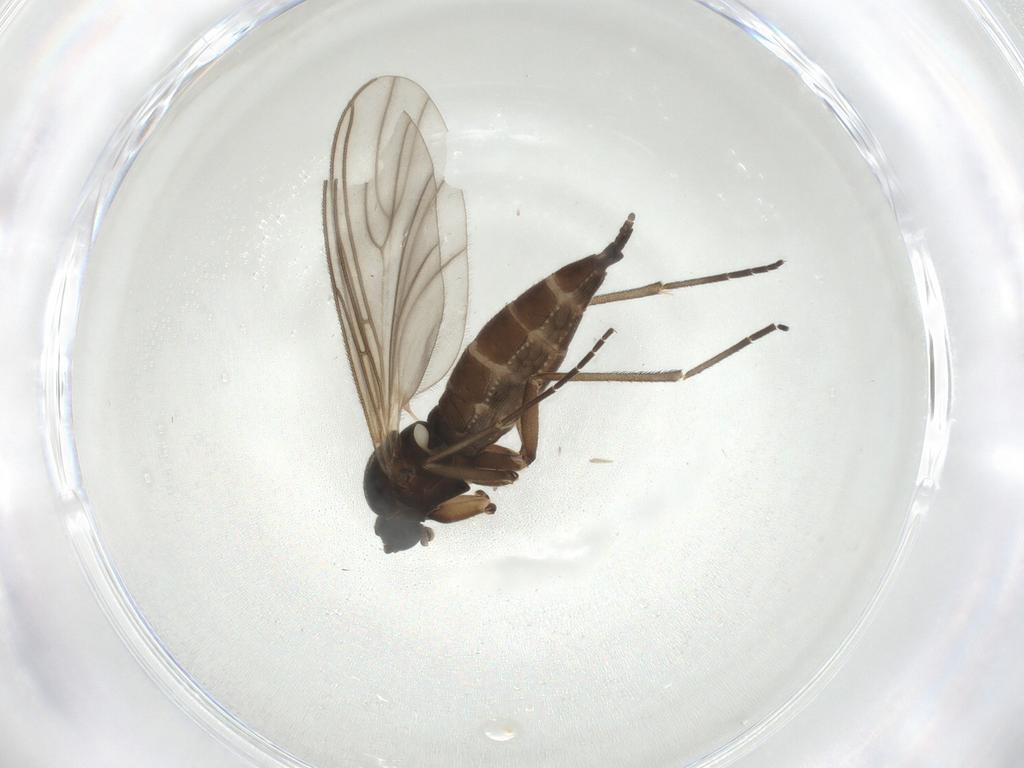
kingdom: Animalia
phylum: Arthropoda
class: Insecta
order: Diptera
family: Sciaridae
